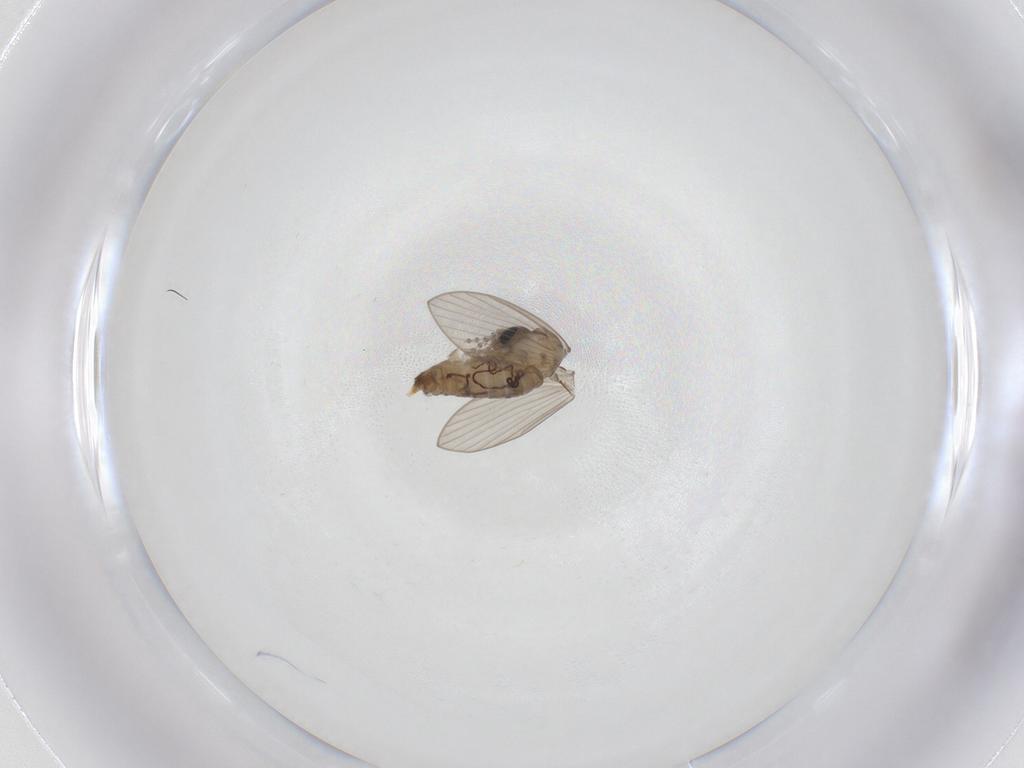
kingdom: Animalia
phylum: Arthropoda
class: Insecta
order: Diptera
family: Psychodidae
